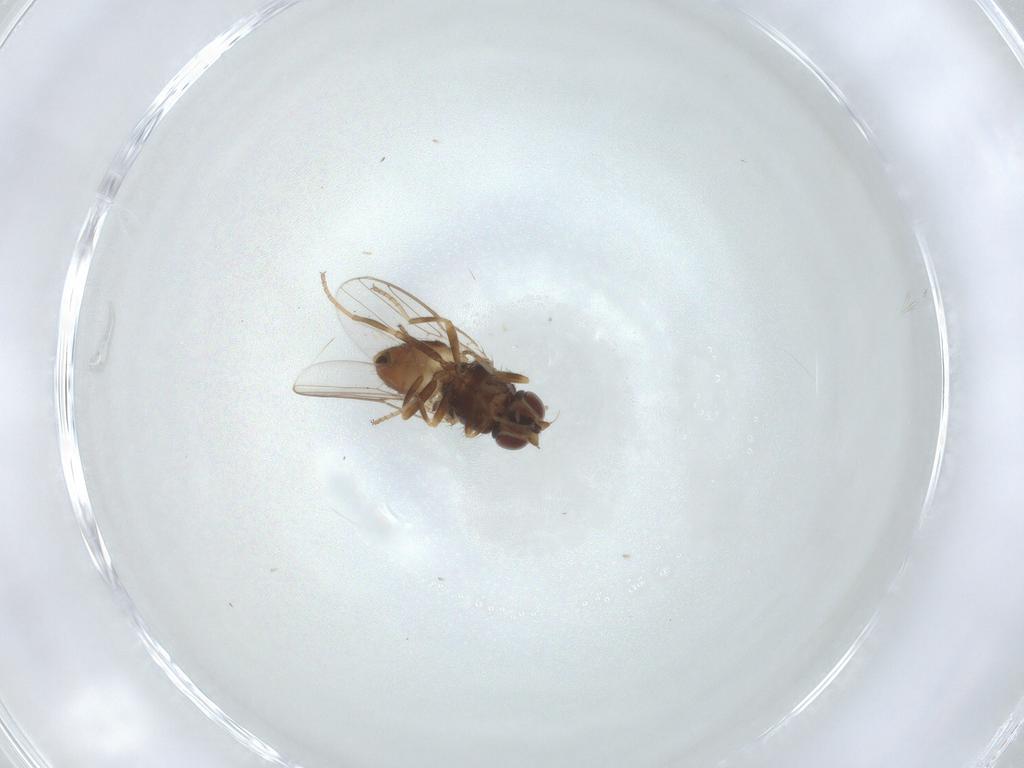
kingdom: Animalia
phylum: Arthropoda
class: Insecta
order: Diptera
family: Chloropidae
